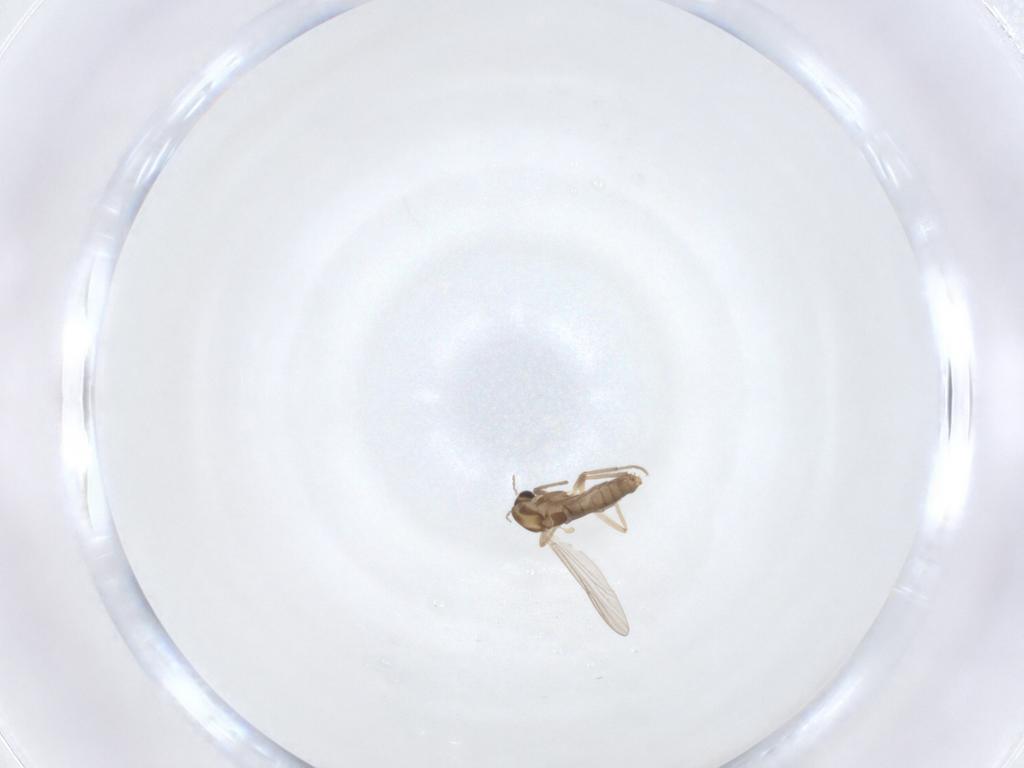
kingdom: Animalia
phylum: Arthropoda
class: Insecta
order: Diptera
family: Chironomidae
